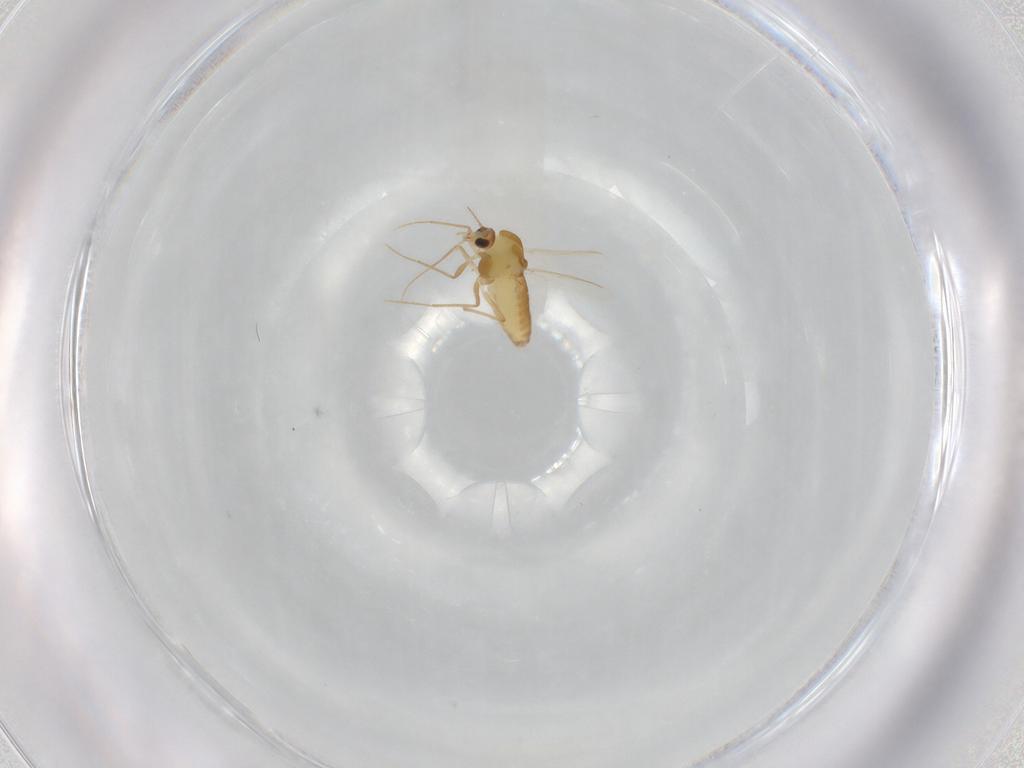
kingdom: Animalia
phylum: Arthropoda
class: Insecta
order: Diptera
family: Chironomidae
